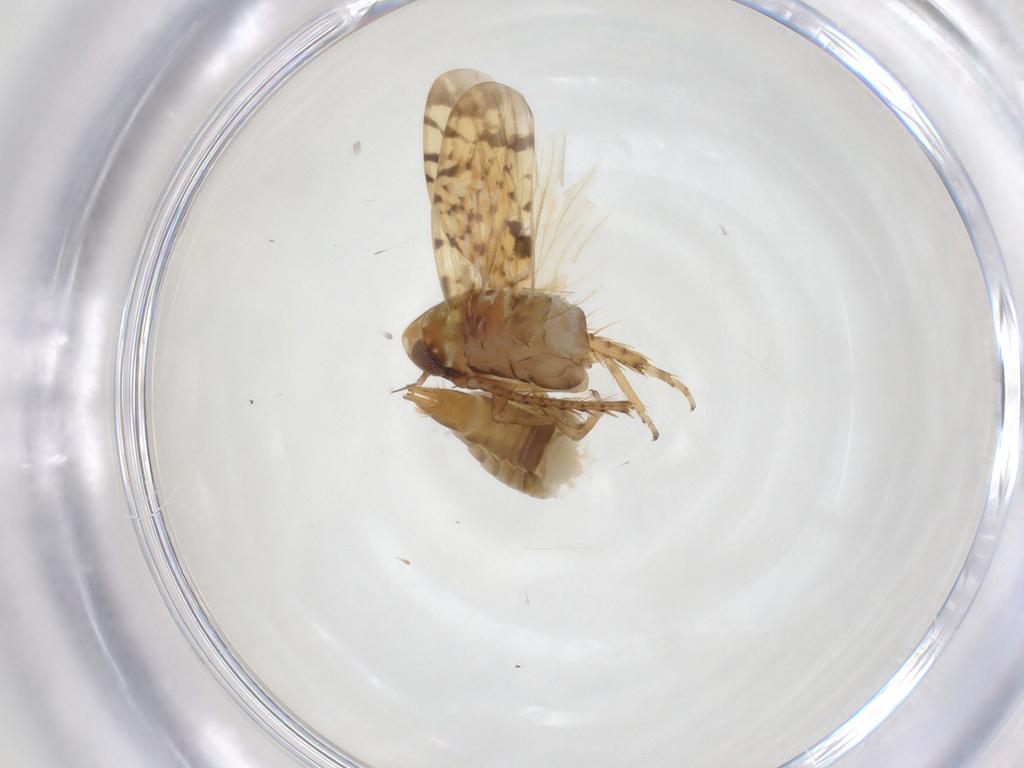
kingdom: Animalia
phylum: Arthropoda
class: Insecta
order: Hemiptera
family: Cicadellidae
